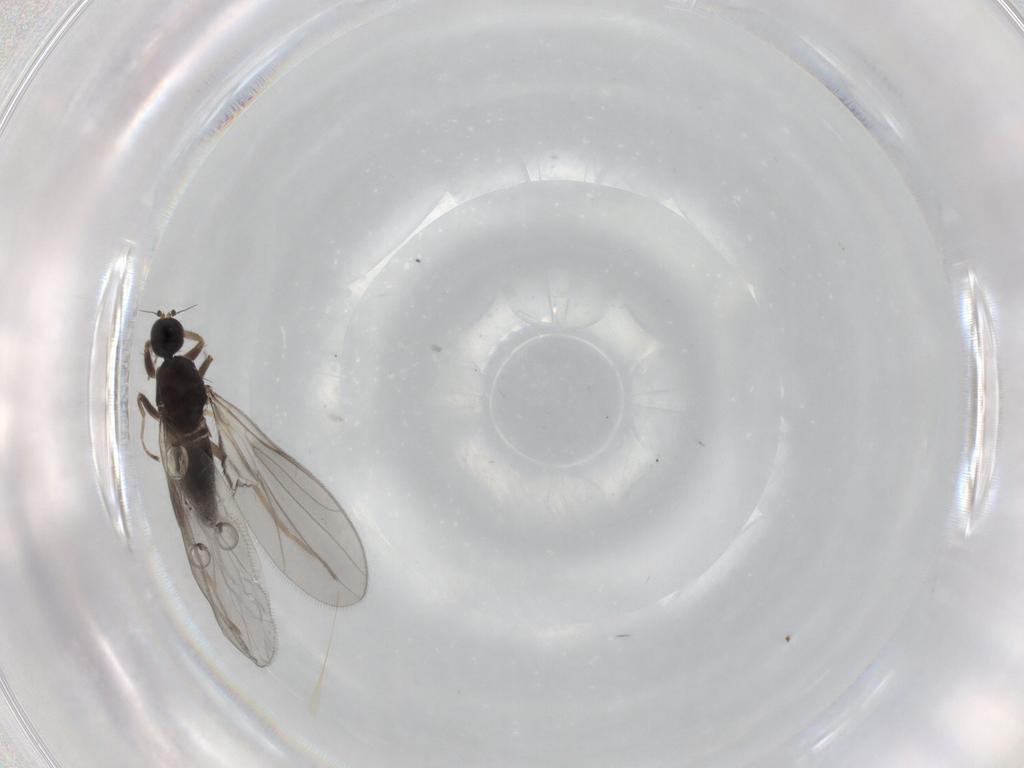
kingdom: Animalia
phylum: Arthropoda
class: Insecta
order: Diptera
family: Hybotidae
